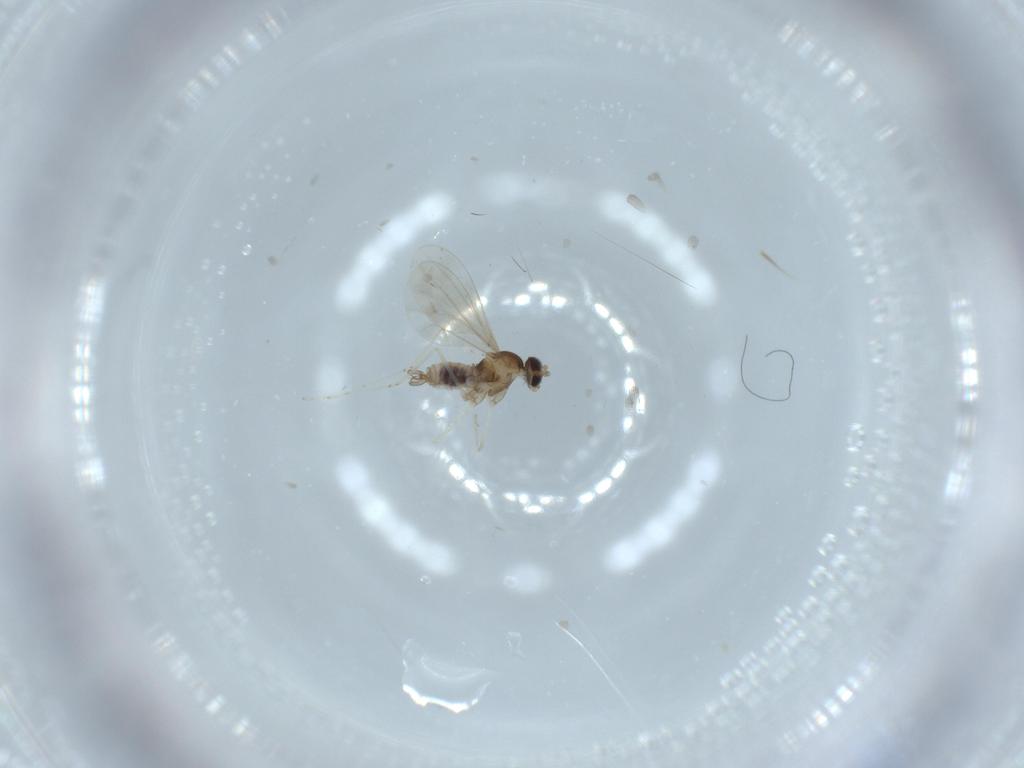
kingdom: Animalia
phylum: Arthropoda
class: Insecta
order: Diptera
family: Cecidomyiidae
